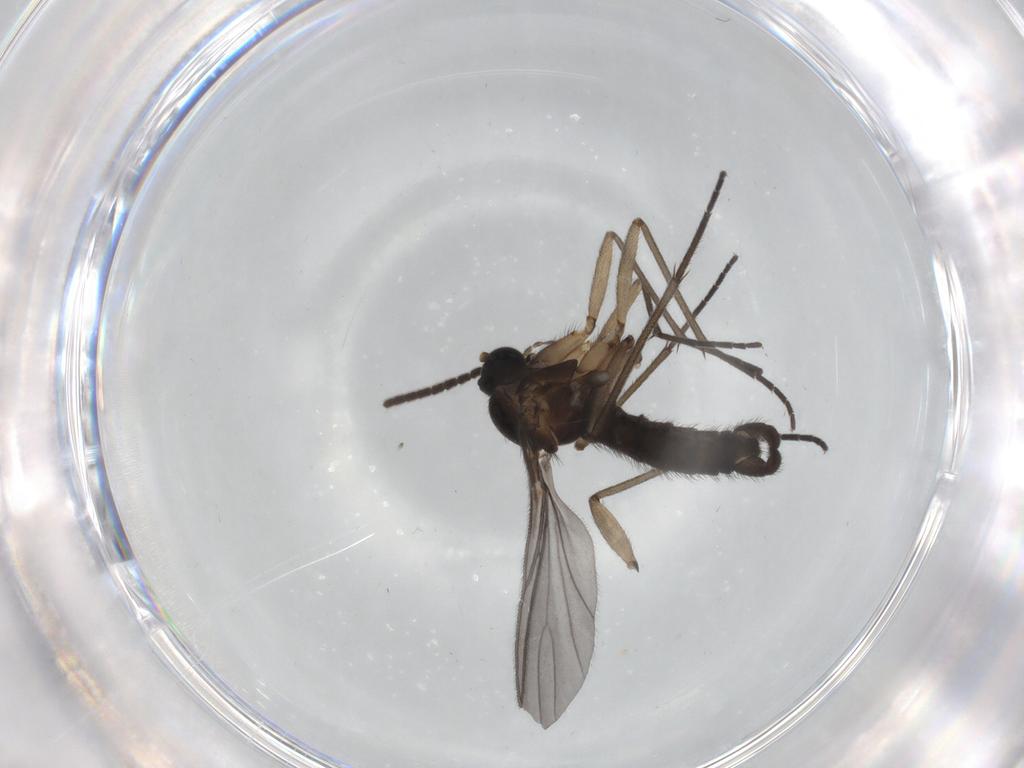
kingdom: Animalia
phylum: Arthropoda
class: Insecta
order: Diptera
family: Sciaridae
